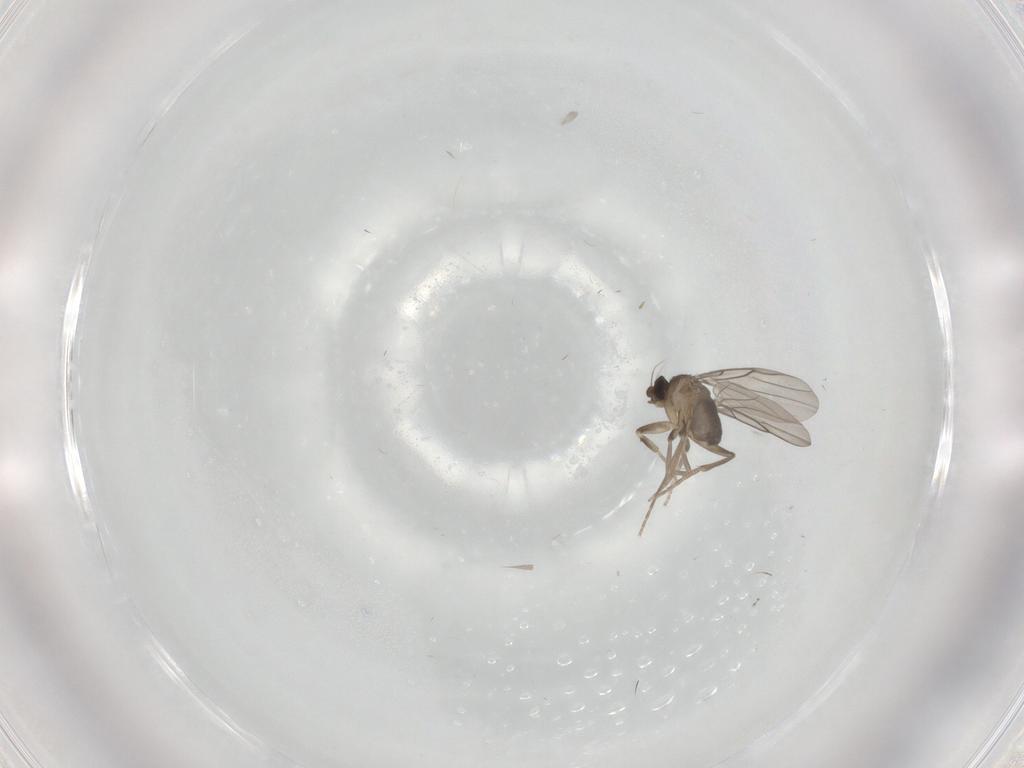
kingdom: Animalia
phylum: Arthropoda
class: Insecta
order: Diptera
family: Phoridae
